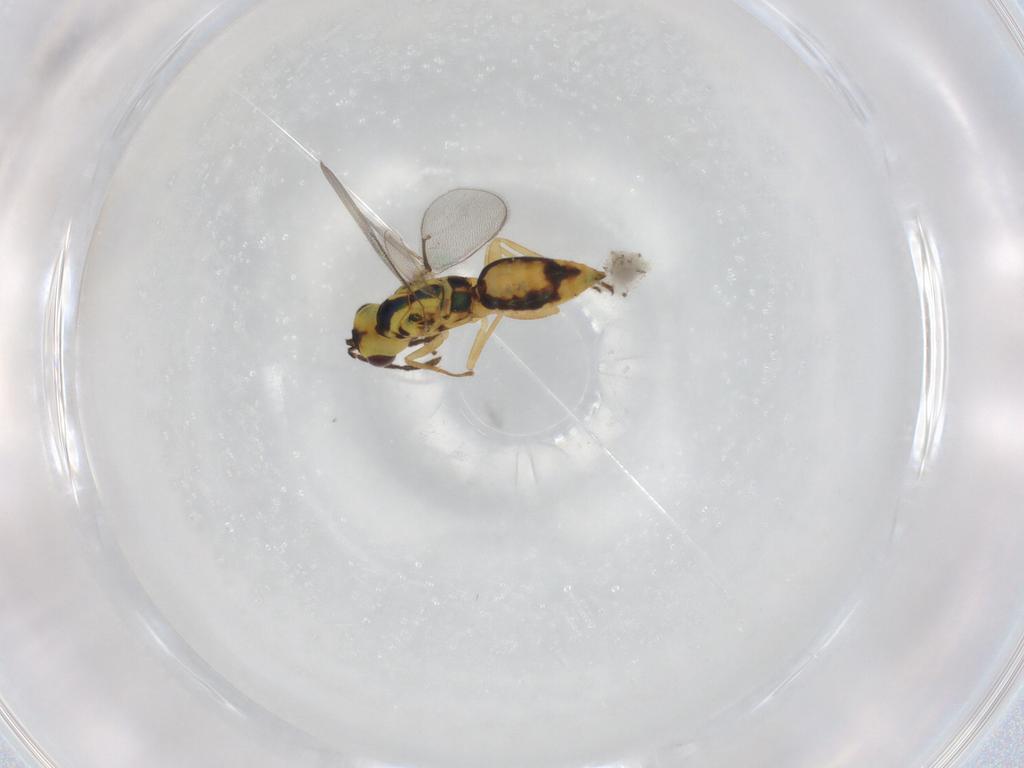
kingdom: Animalia
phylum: Arthropoda
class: Insecta
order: Hymenoptera
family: Eulophidae
